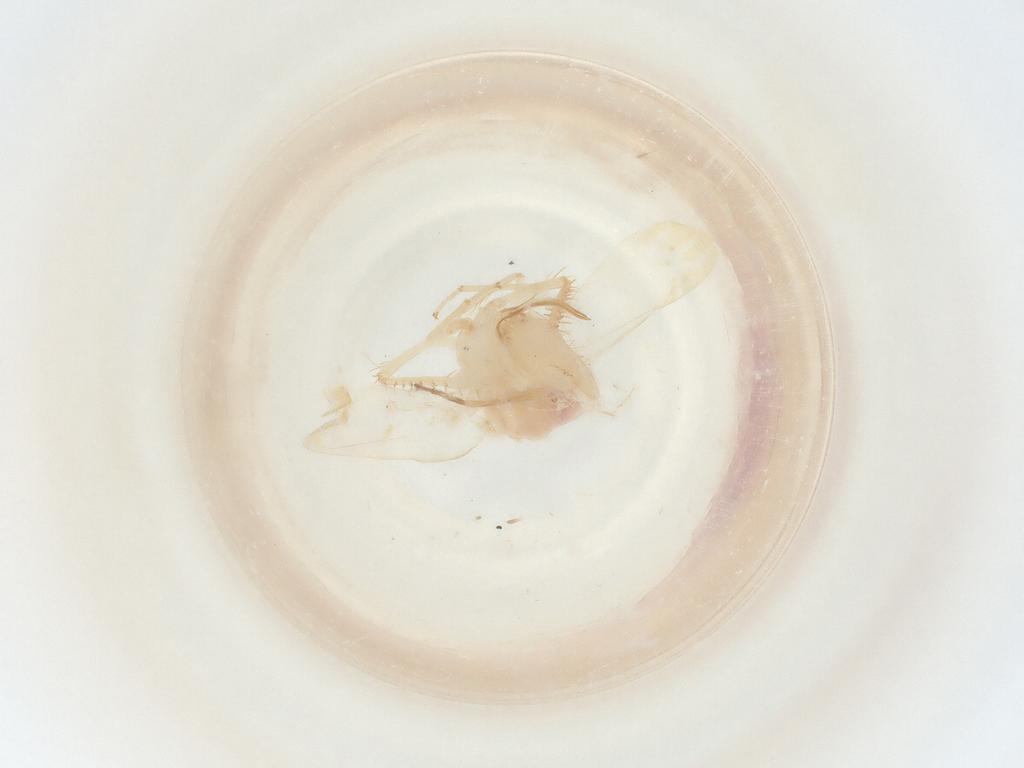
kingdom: Animalia
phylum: Arthropoda
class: Insecta
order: Hemiptera
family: Cicadellidae
